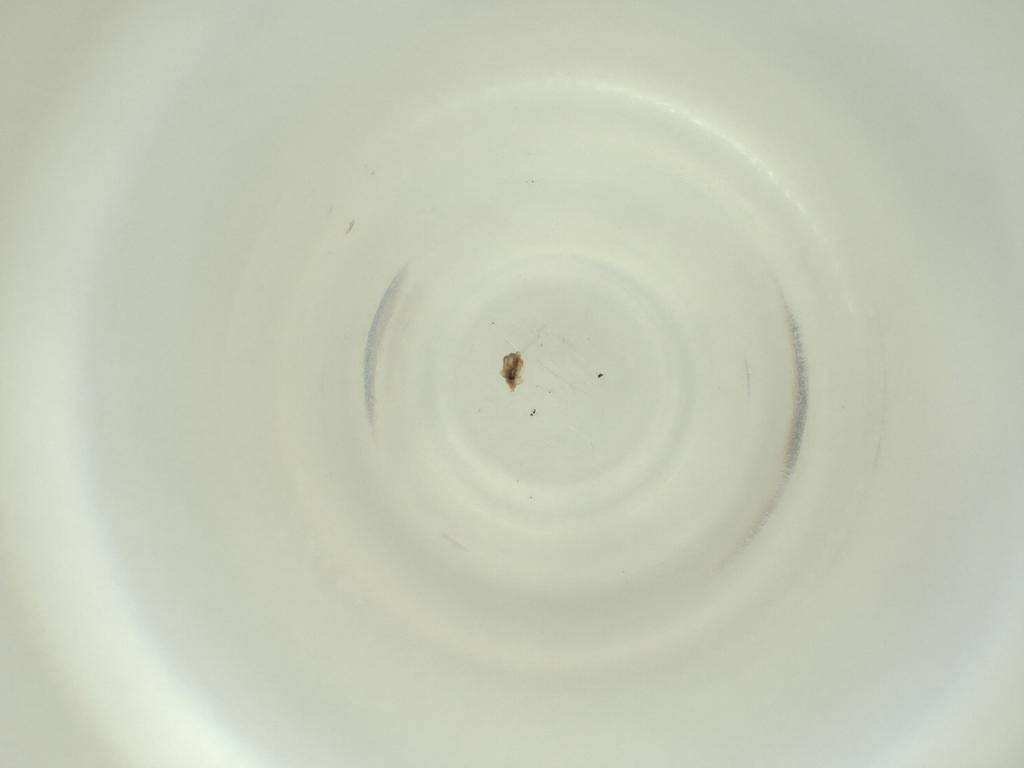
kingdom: Animalia
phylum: Arthropoda
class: Insecta
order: Diptera
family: Cecidomyiidae
